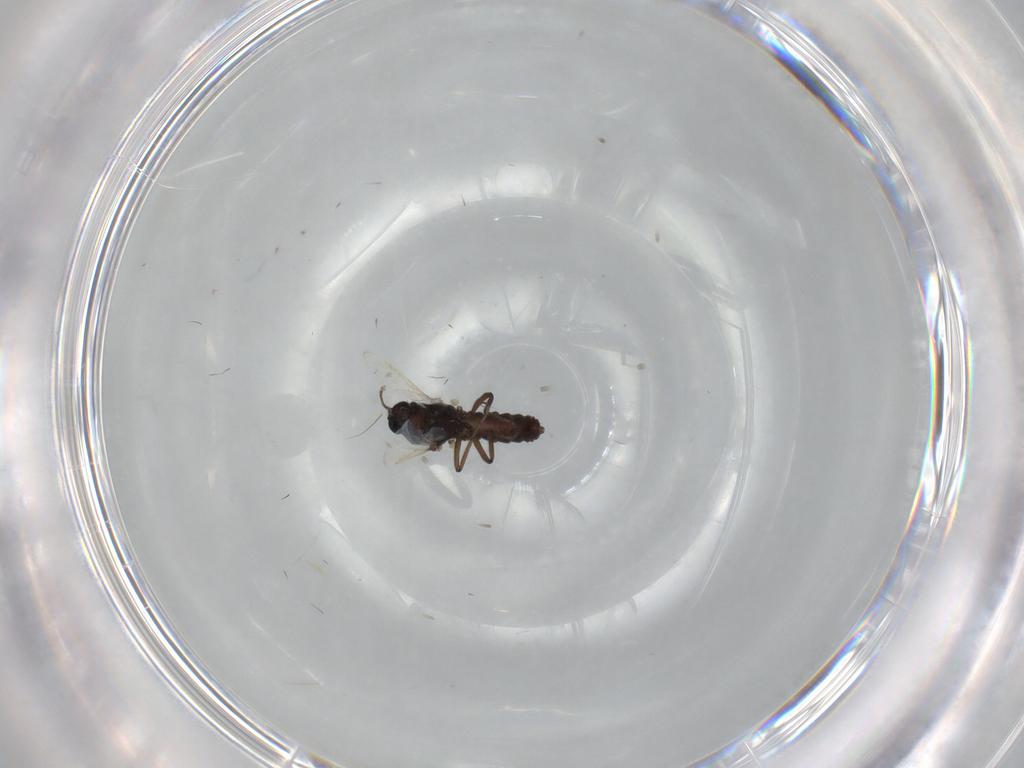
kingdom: Animalia
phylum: Arthropoda
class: Insecta
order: Diptera
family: Ceratopogonidae
